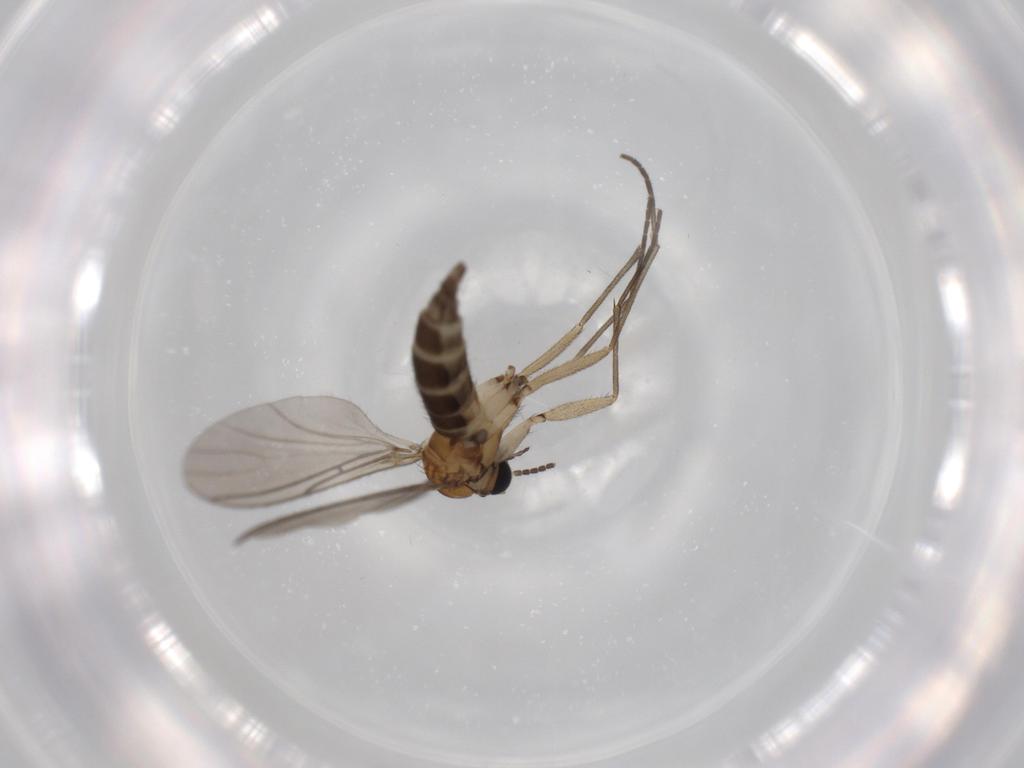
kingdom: Animalia
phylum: Arthropoda
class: Insecta
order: Diptera
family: Sciaridae
